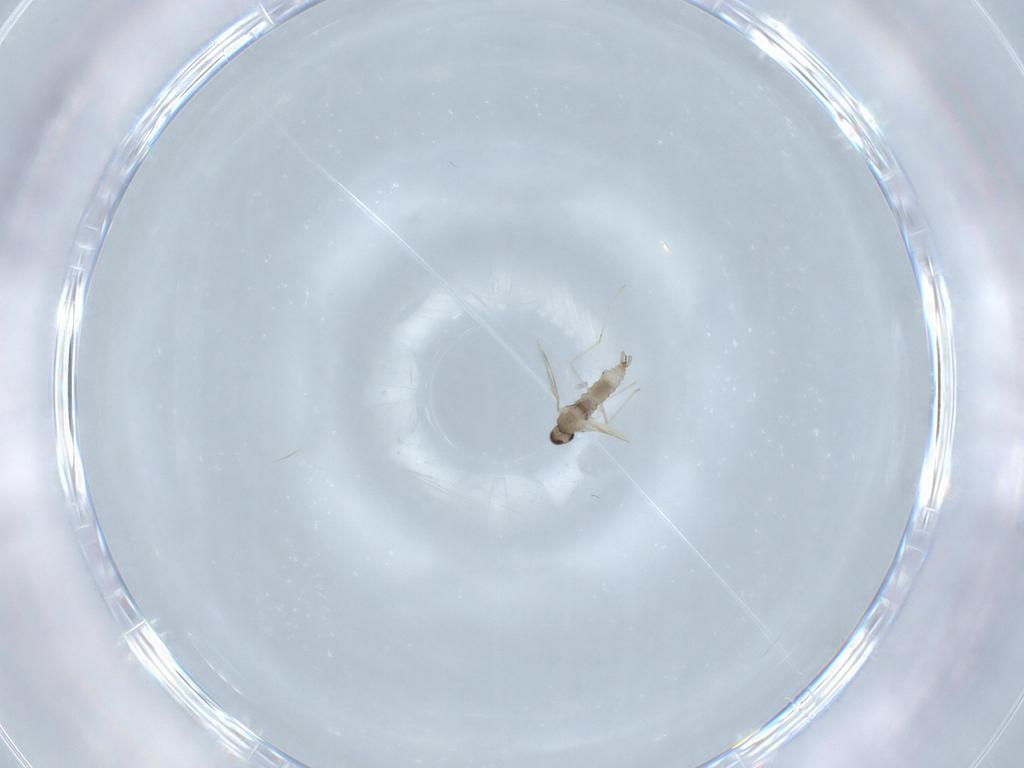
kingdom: Animalia
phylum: Arthropoda
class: Insecta
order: Diptera
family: Cecidomyiidae
